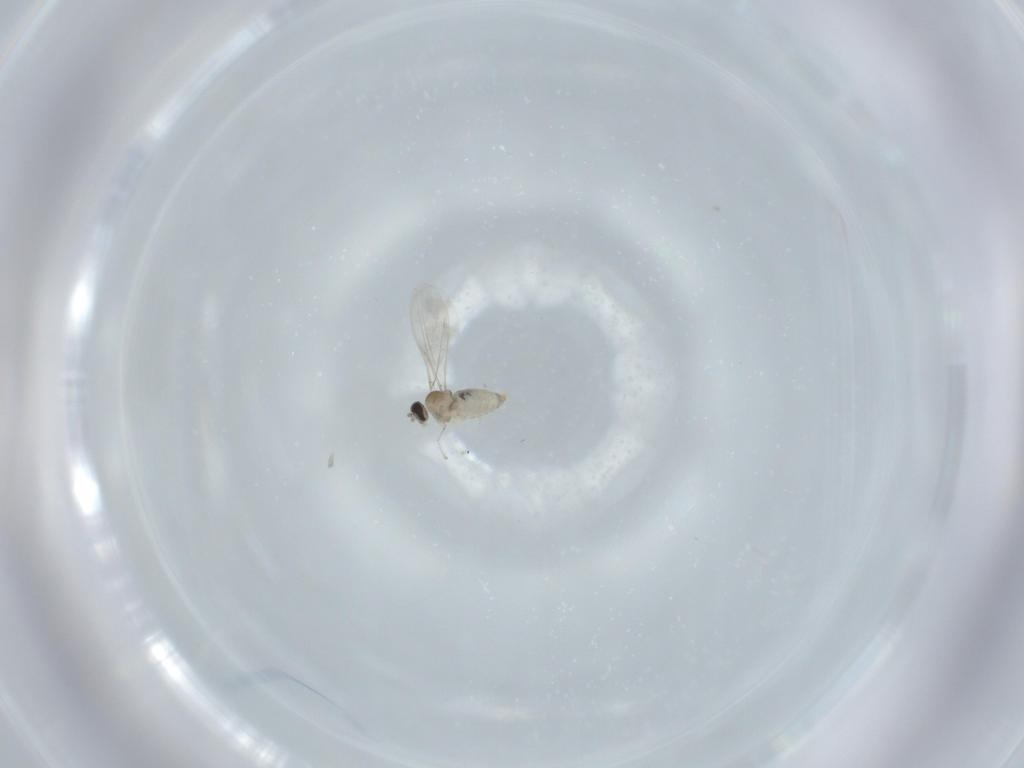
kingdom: Animalia
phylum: Arthropoda
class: Insecta
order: Diptera
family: Cecidomyiidae
